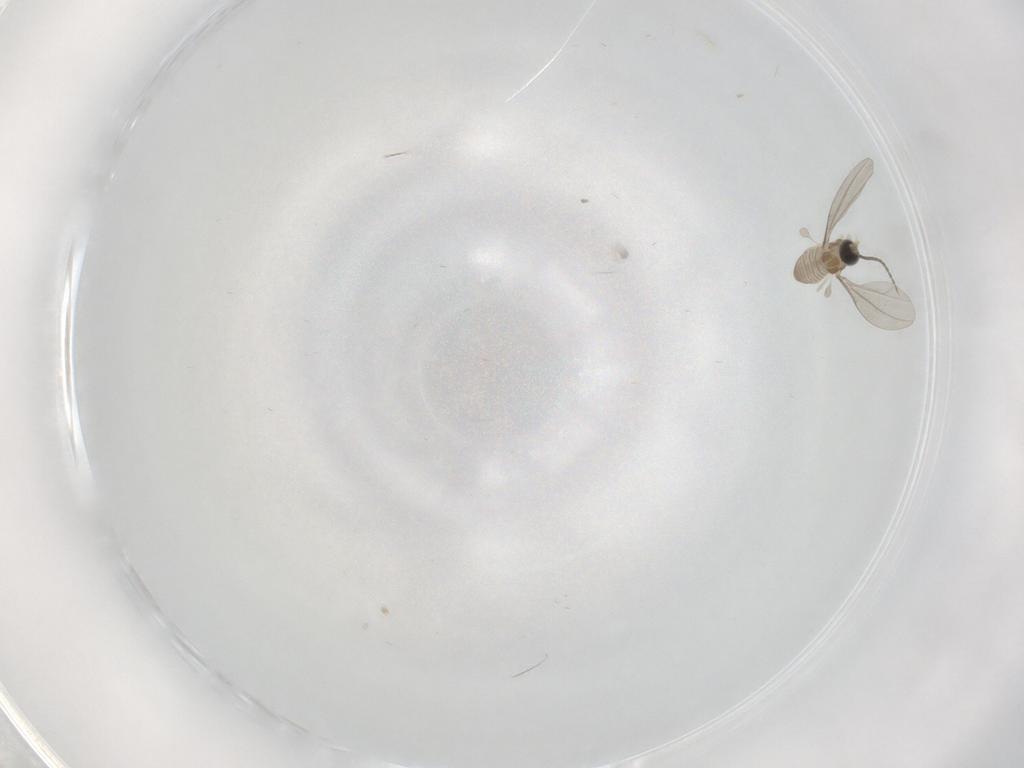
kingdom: Animalia
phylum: Arthropoda
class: Insecta
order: Diptera
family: Cecidomyiidae
